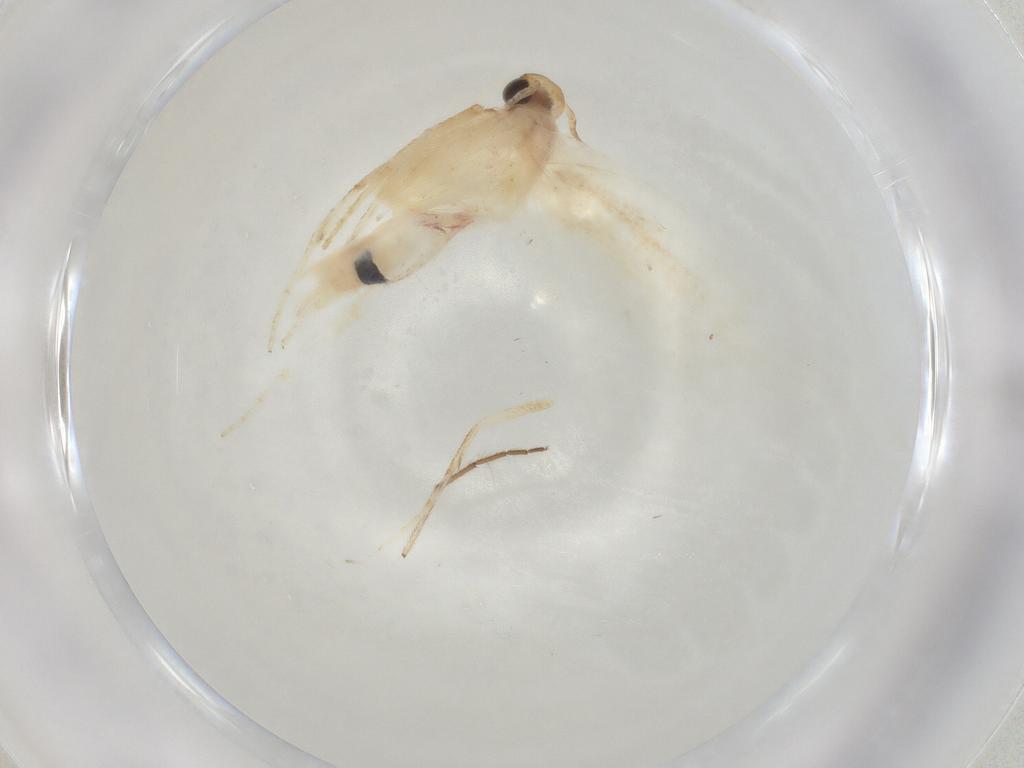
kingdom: Animalia
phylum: Arthropoda
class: Insecta
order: Lepidoptera
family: Gelechiidae
